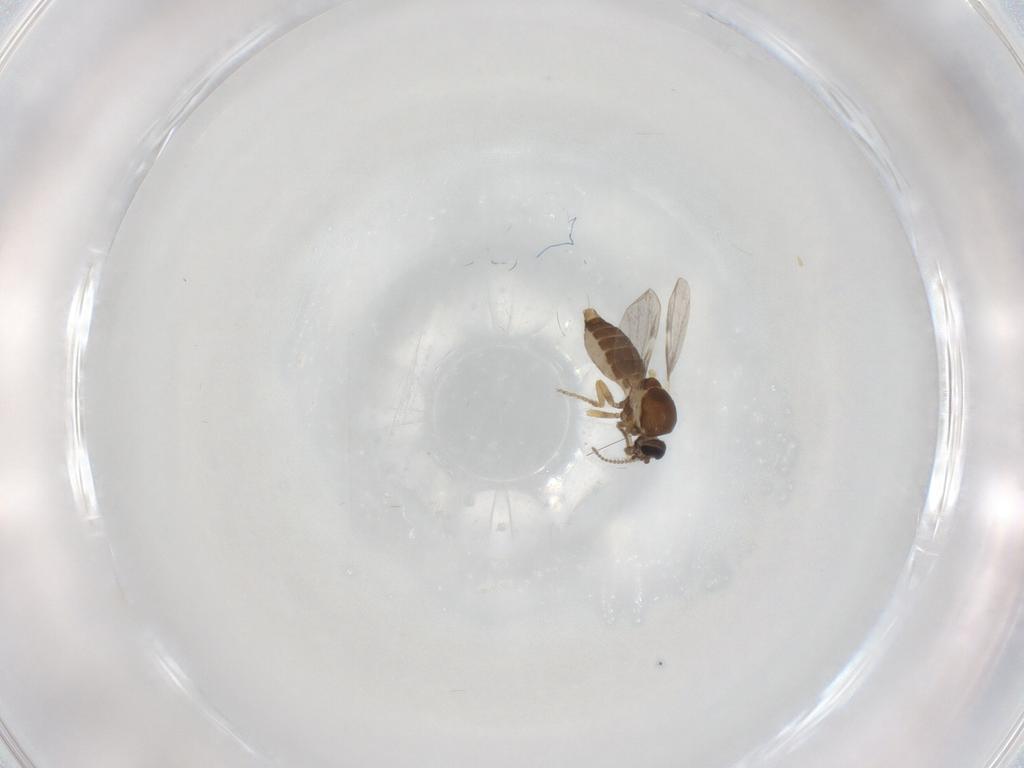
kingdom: Animalia
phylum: Arthropoda
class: Insecta
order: Diptera
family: Ceratopogonidae
